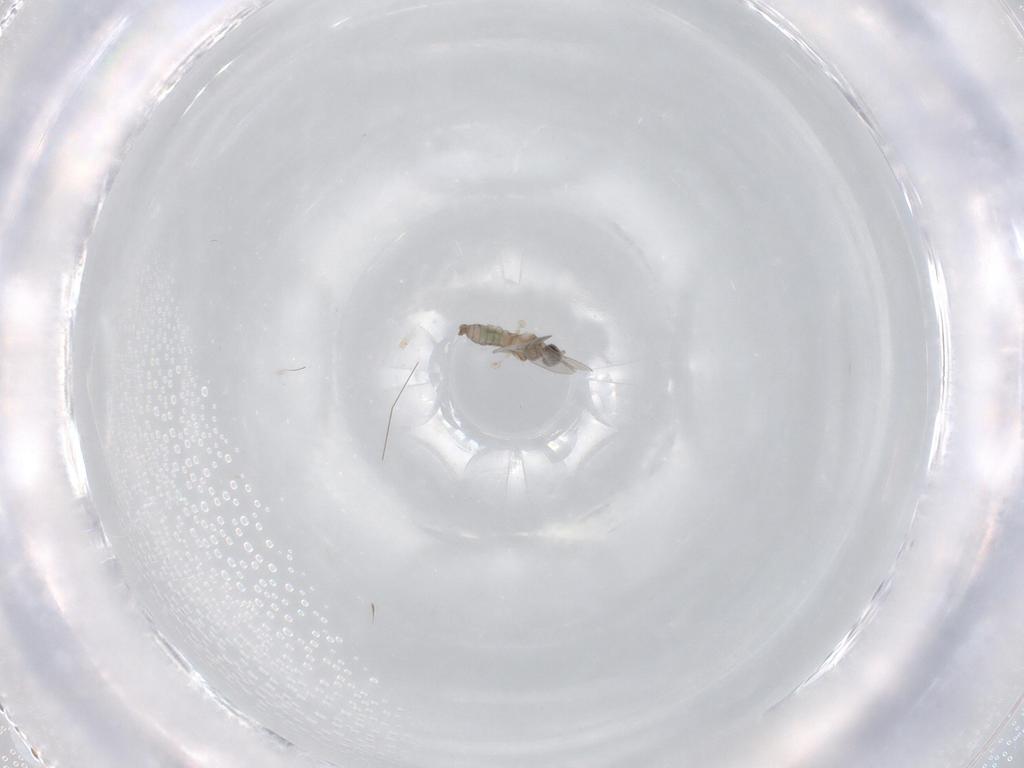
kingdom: Animalia
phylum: Arthropoda
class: Insecta
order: Diptera
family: Cecidomyiidae
